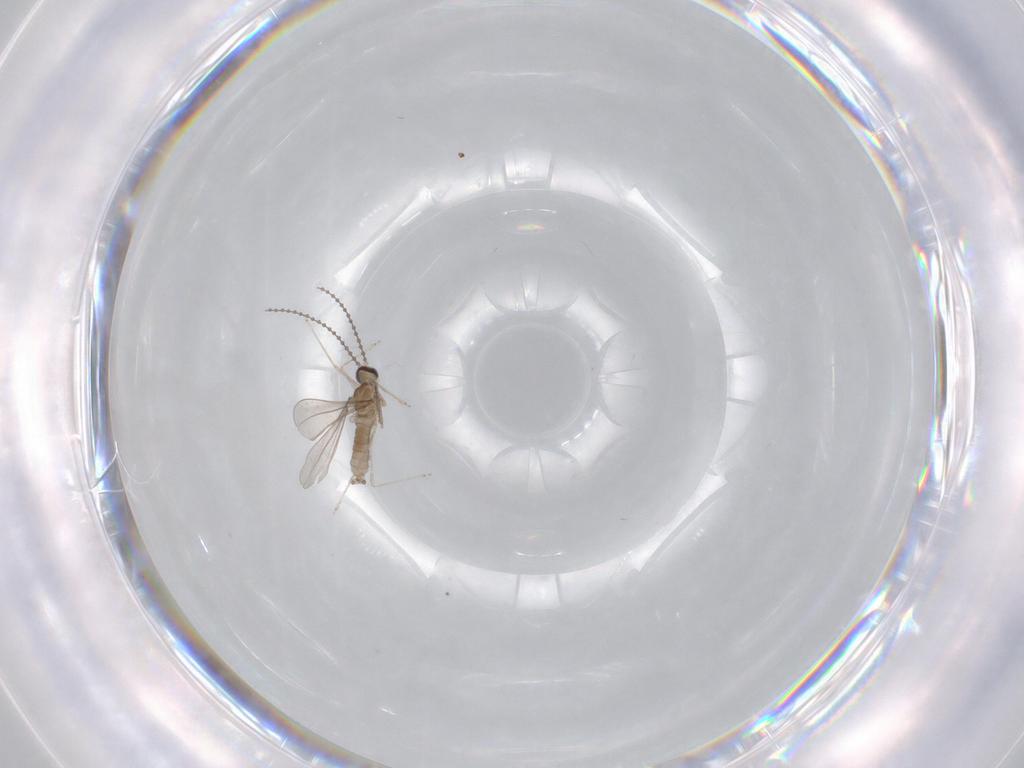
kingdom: Animalia
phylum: Arthropoda
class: Insecta
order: Diptera
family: Cecidomyiidae
